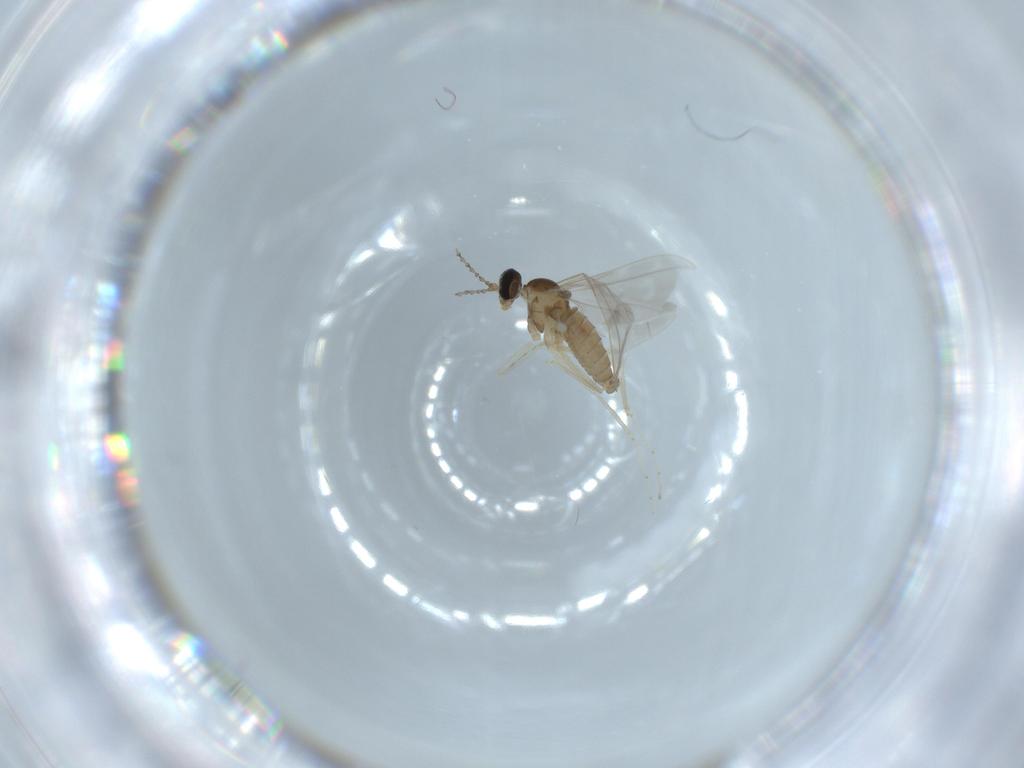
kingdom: Animalia
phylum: Arthropoda
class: Insecta
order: Diptera
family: Cecidomyiidae
